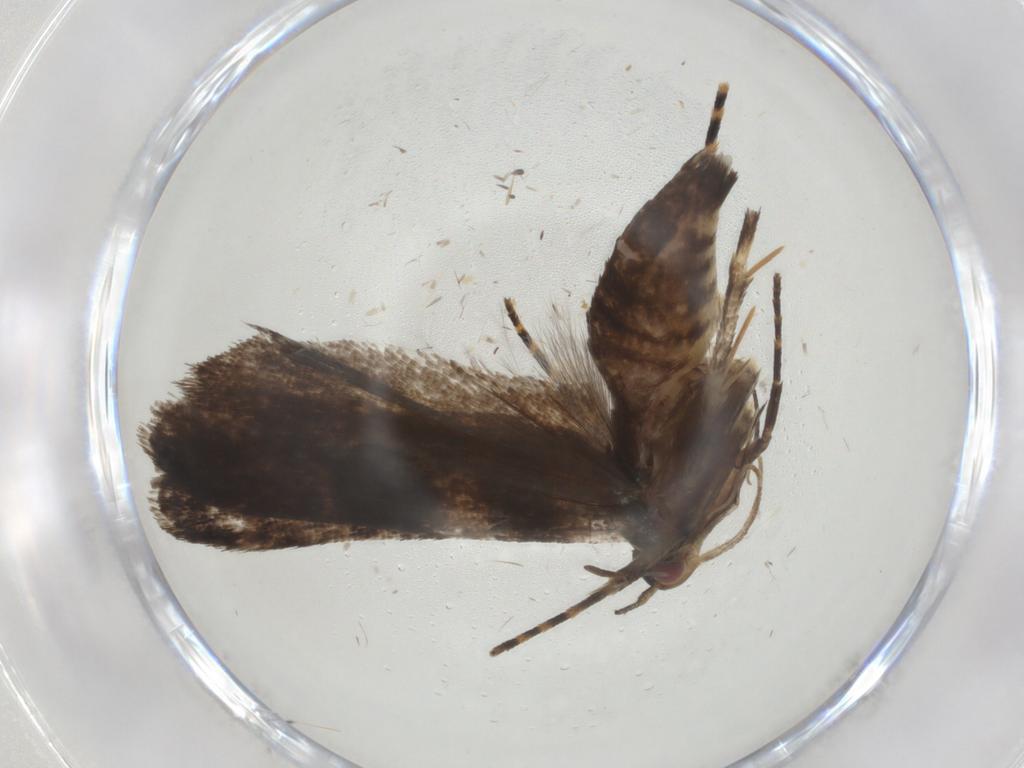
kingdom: Animalia
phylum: Arthropoda
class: Insecta
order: Lepidoptera
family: Gelechiidae
